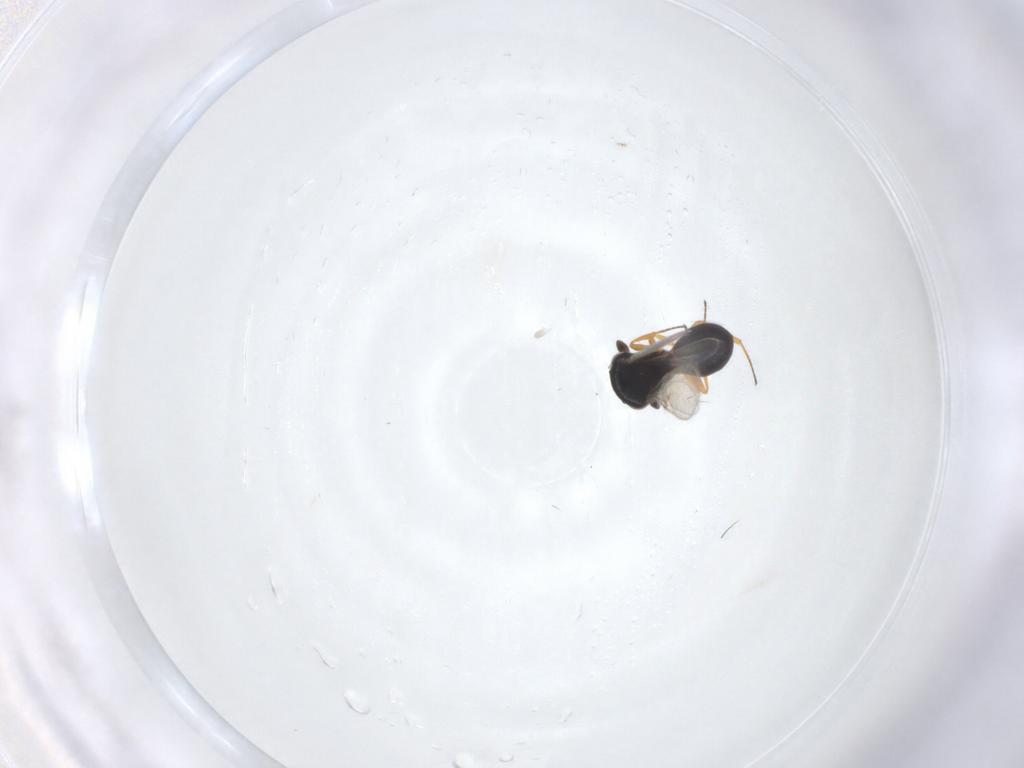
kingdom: Animalia
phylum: Arthropoda
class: Insecta
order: Hymenoptera
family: Scelionidae
